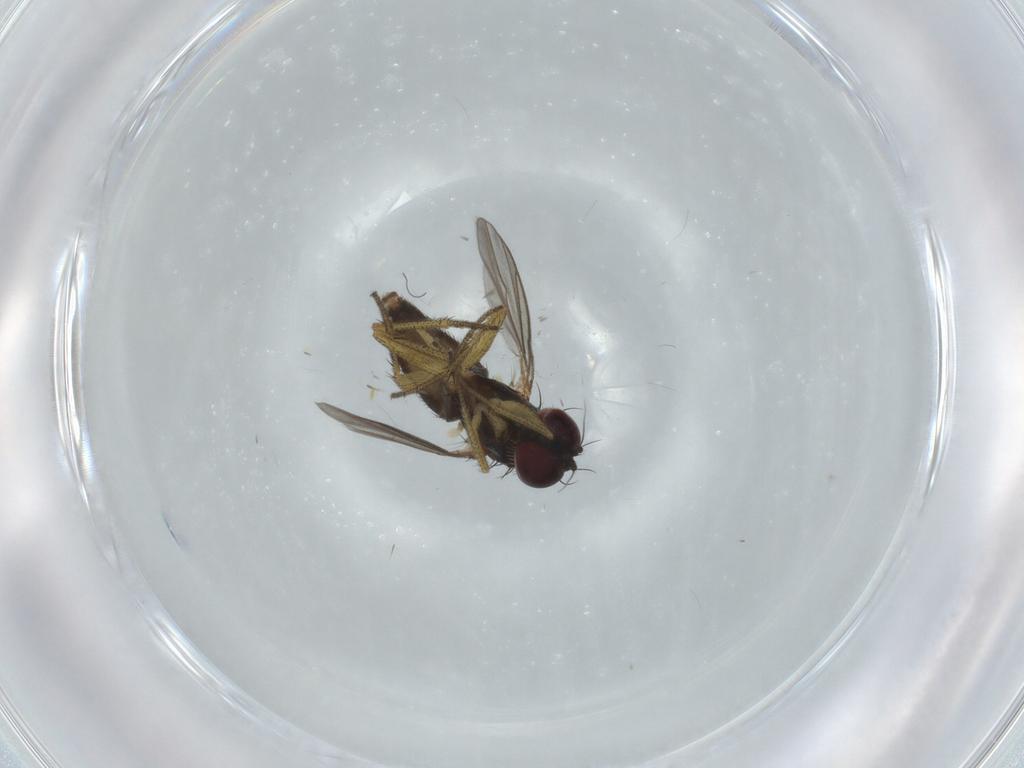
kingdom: Animalia
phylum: Arthropoda
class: Insecta
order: Diptera
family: Dolichopodidae
